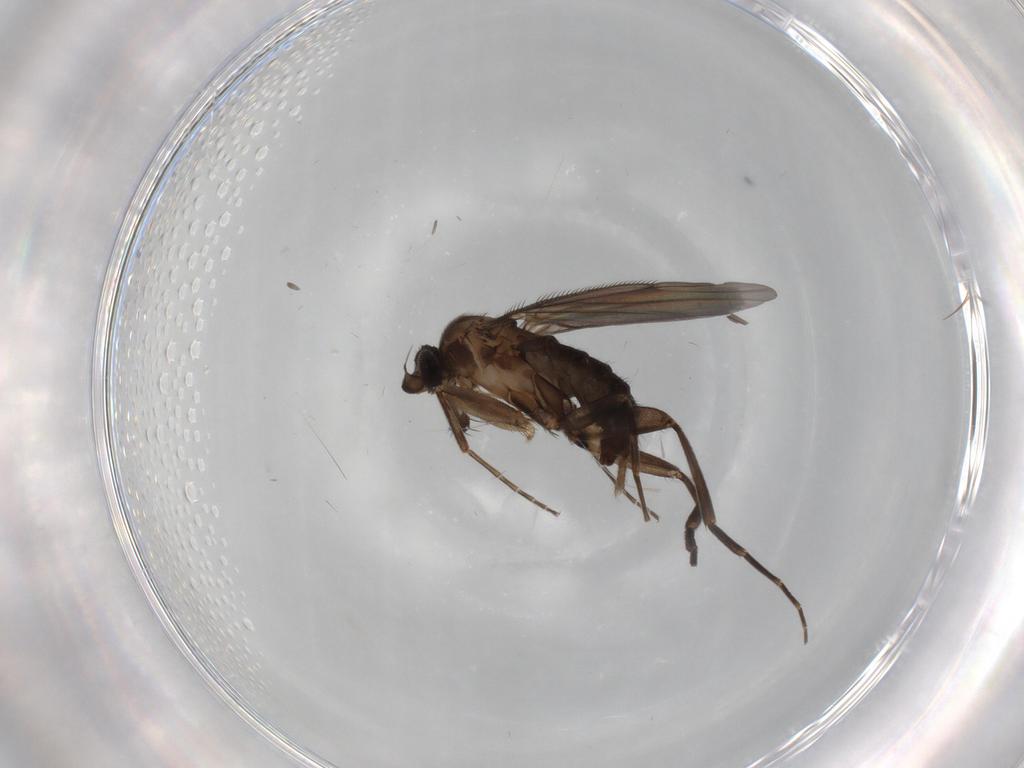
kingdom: Animalia
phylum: Arthropoda
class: Insecta
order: Diptera
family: Phoridae
